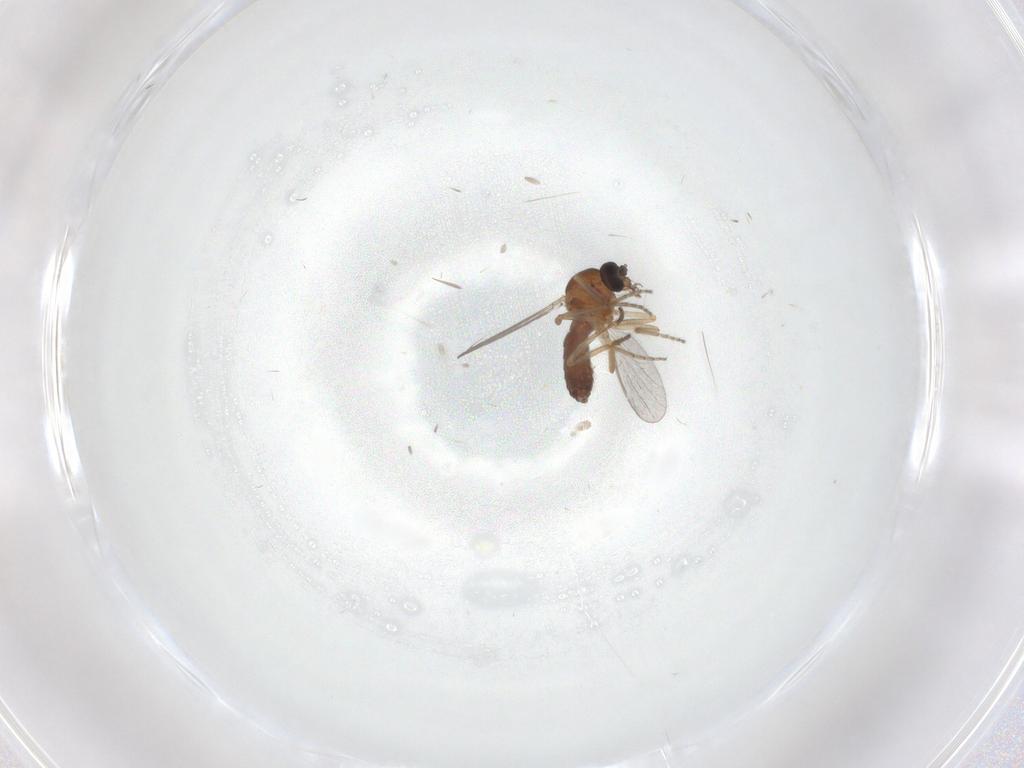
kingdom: Animalia
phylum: Arthropoda
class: Insecta
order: Diptera
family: Ceratopogonidae
